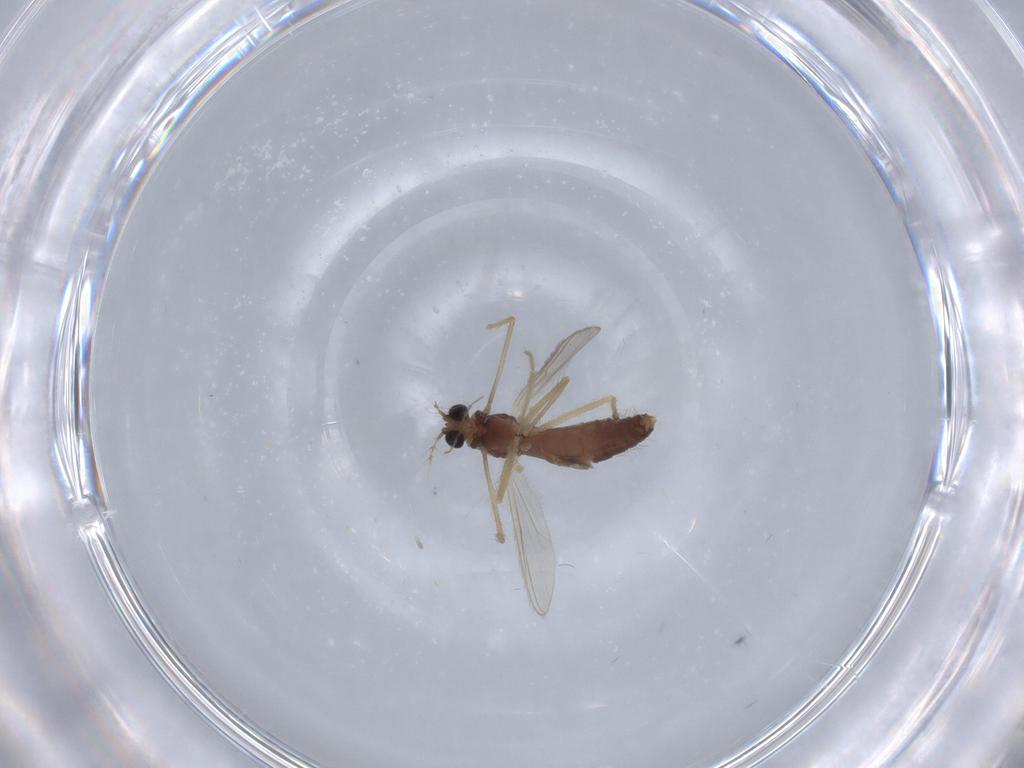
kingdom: Animalia
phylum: Arthropoda
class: Insecta
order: Diptera
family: Chironomidae
